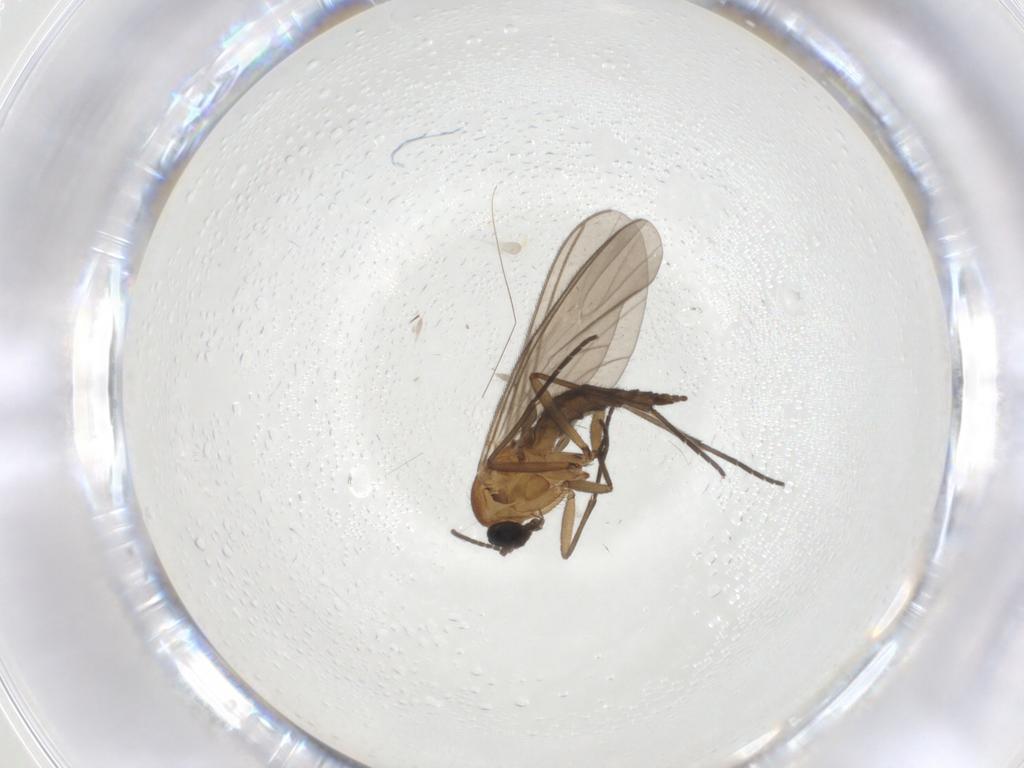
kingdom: Animalia
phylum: Arthropoda
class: Insecta
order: Diptera
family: Sciaridae
